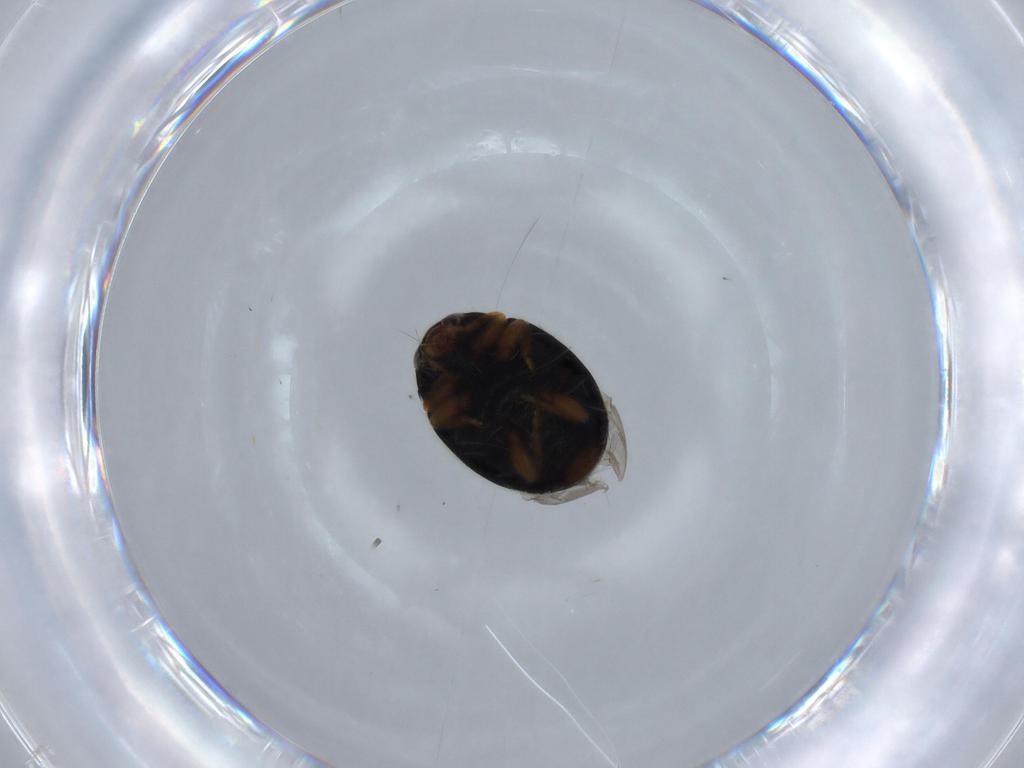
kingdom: Animalia
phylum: Arthropoda
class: Insecta
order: Coleoptera
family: Coccinellidae
